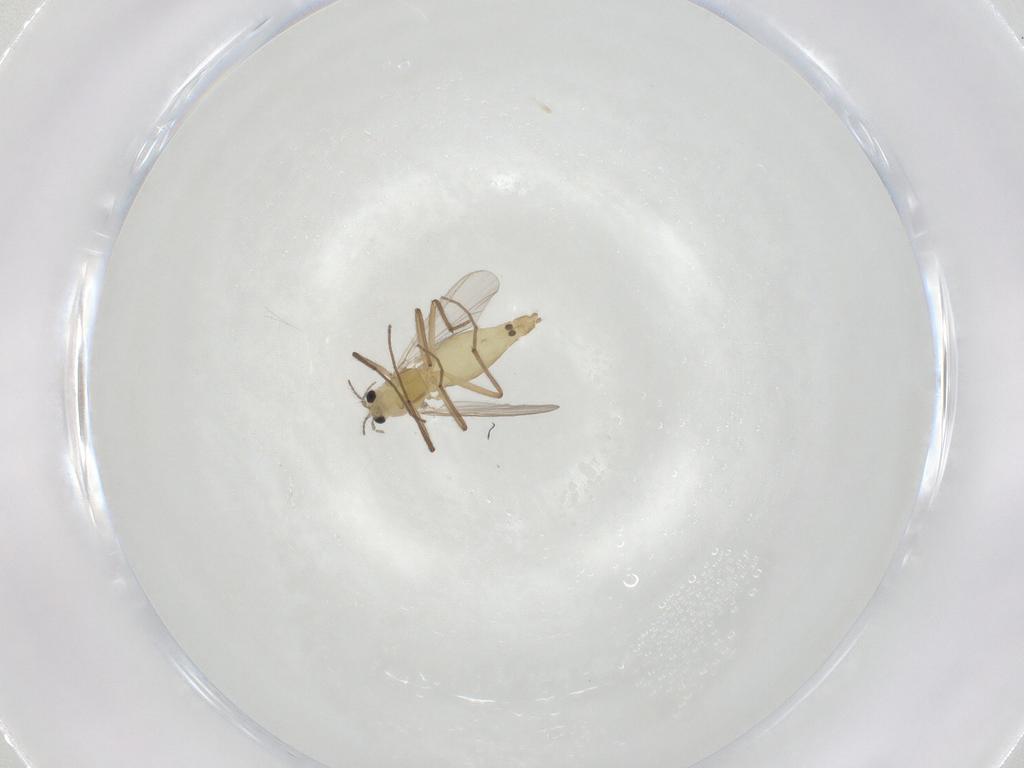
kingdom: Animalia
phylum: Arthropoda
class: Insecta
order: Diptera
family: Chironomidae
